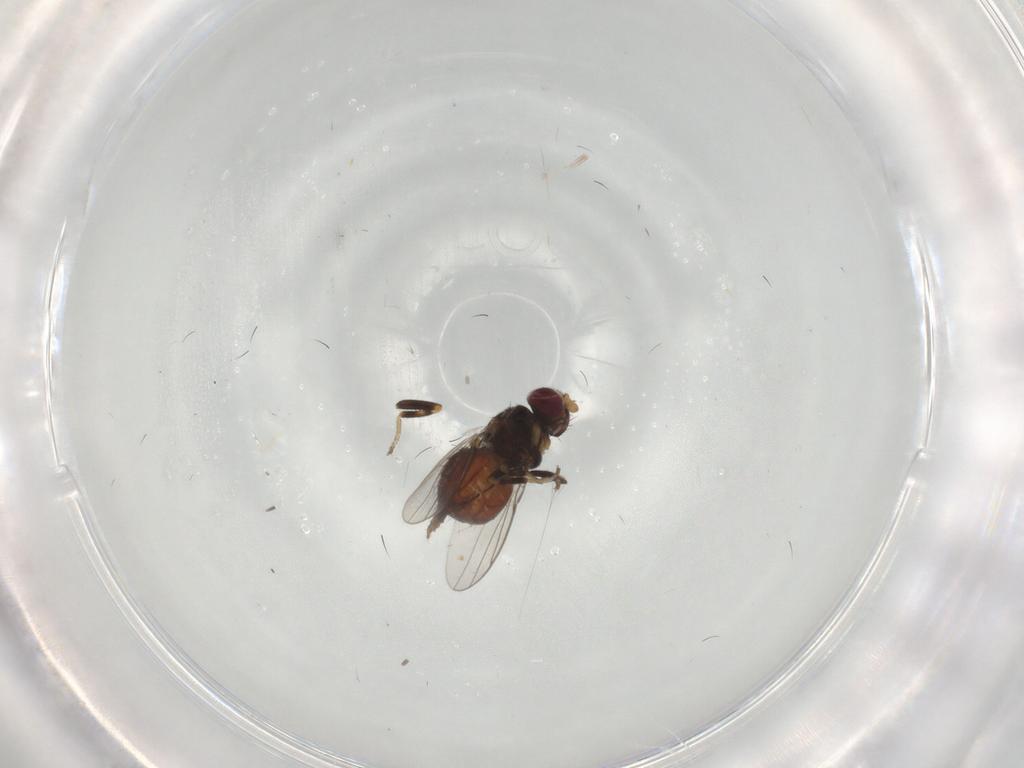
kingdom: Animalia
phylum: Arthropoda
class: Insecta
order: Diptera
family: Chloropidae
